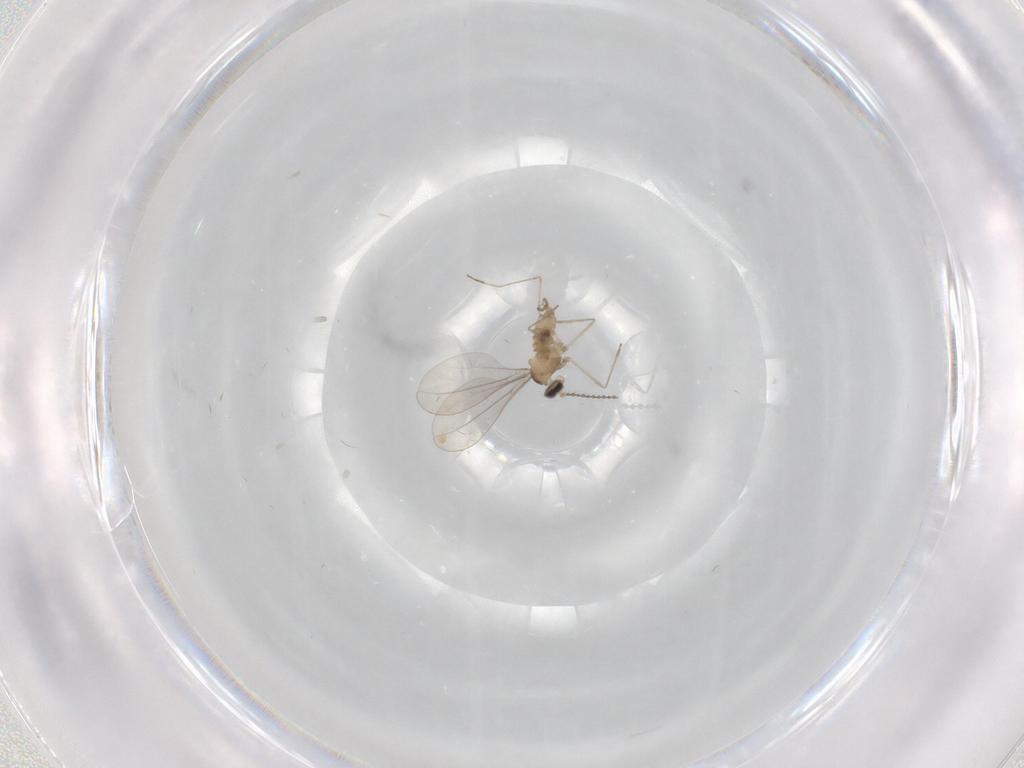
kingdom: Animalia
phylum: Arthropoda
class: Insecta
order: Diptera
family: Cecidomyiidae
